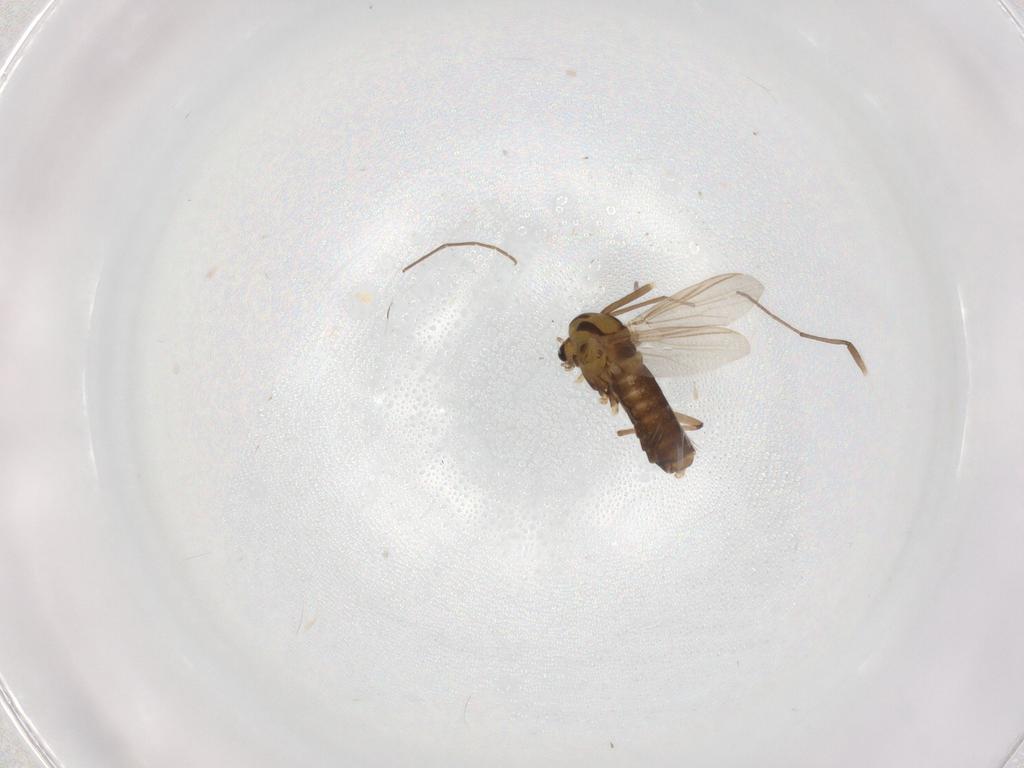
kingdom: Animalia
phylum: Arthropoda
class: Insecta
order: Diptera
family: Chironomidae
